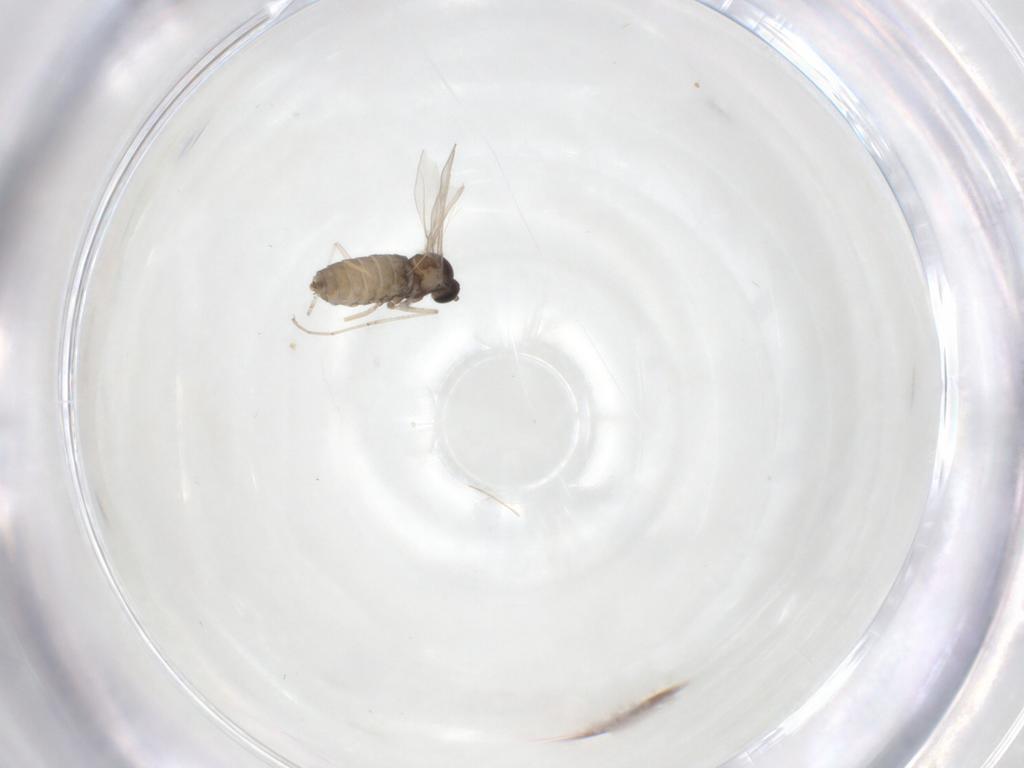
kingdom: Animalia
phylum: Arthropoda
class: Insecta
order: Diptera
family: Cecidomyiidae
